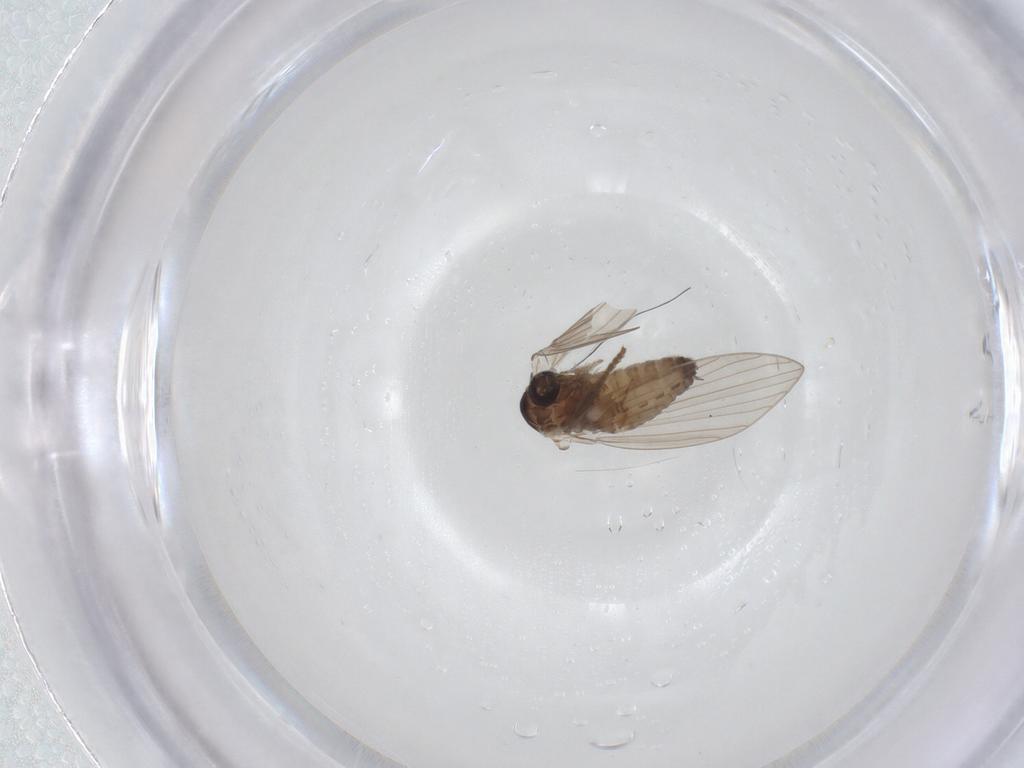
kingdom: Animalia
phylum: Arthropoda
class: Insecta
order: Diptera
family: Psychodidae
